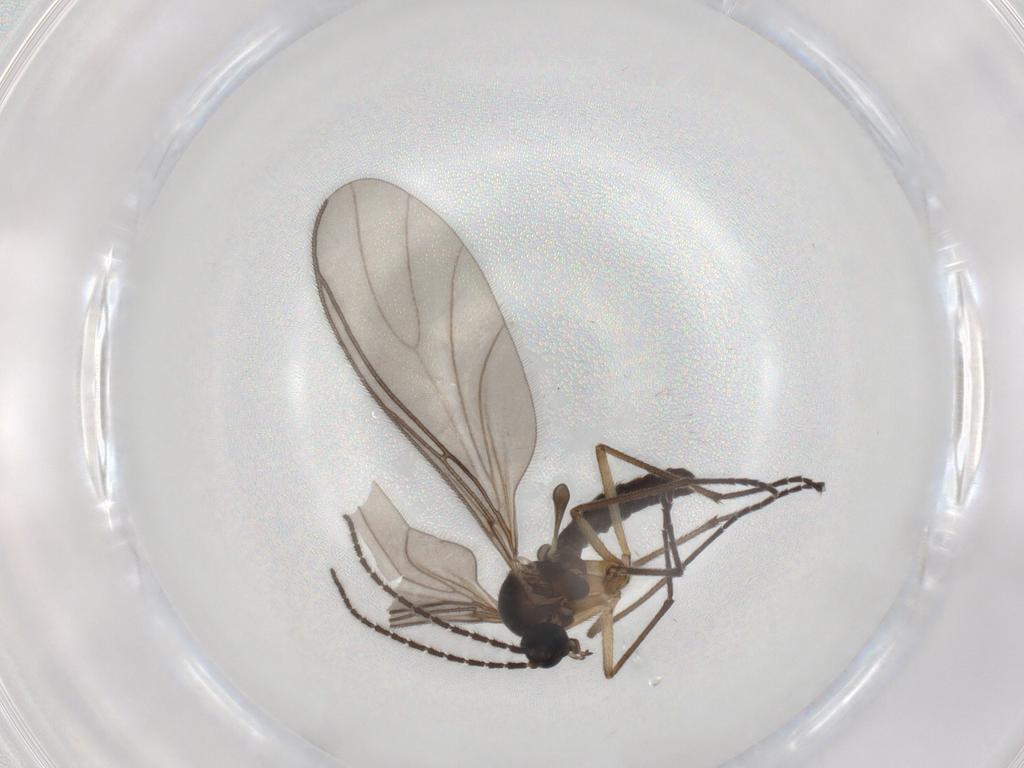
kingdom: Animalia
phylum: Arthropoda
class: Insecta
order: Diptera
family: Sciaridae
